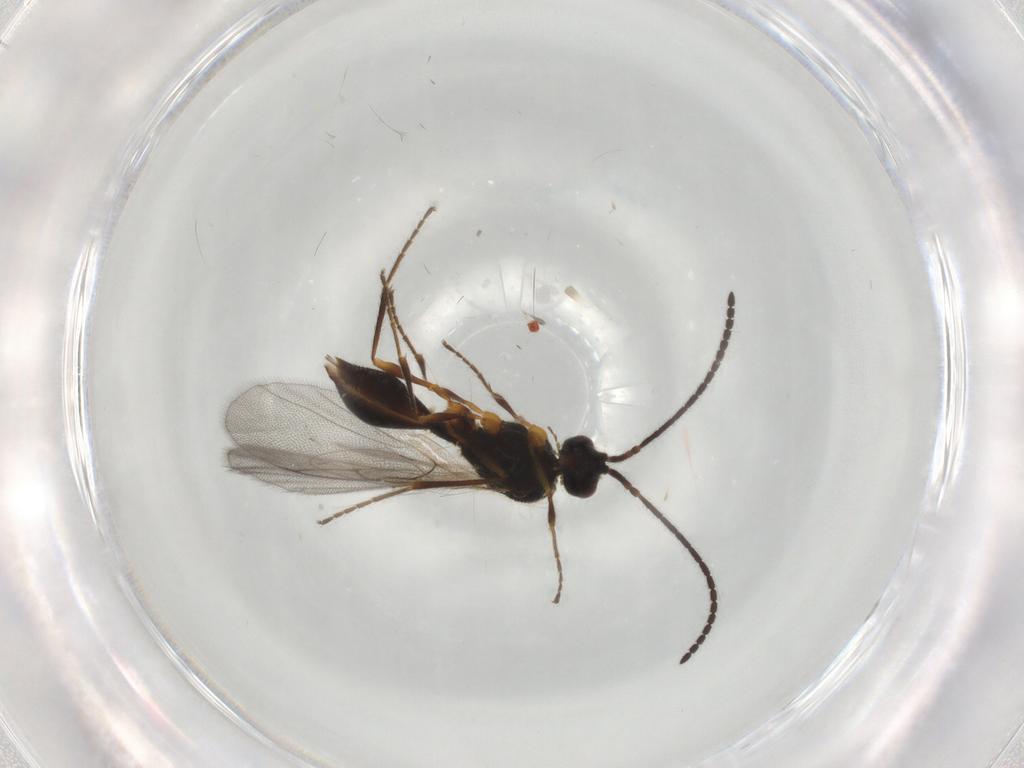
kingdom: Animalia
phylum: Arthropoda
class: Insecta
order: Hymenoptera
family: Diapriidae
